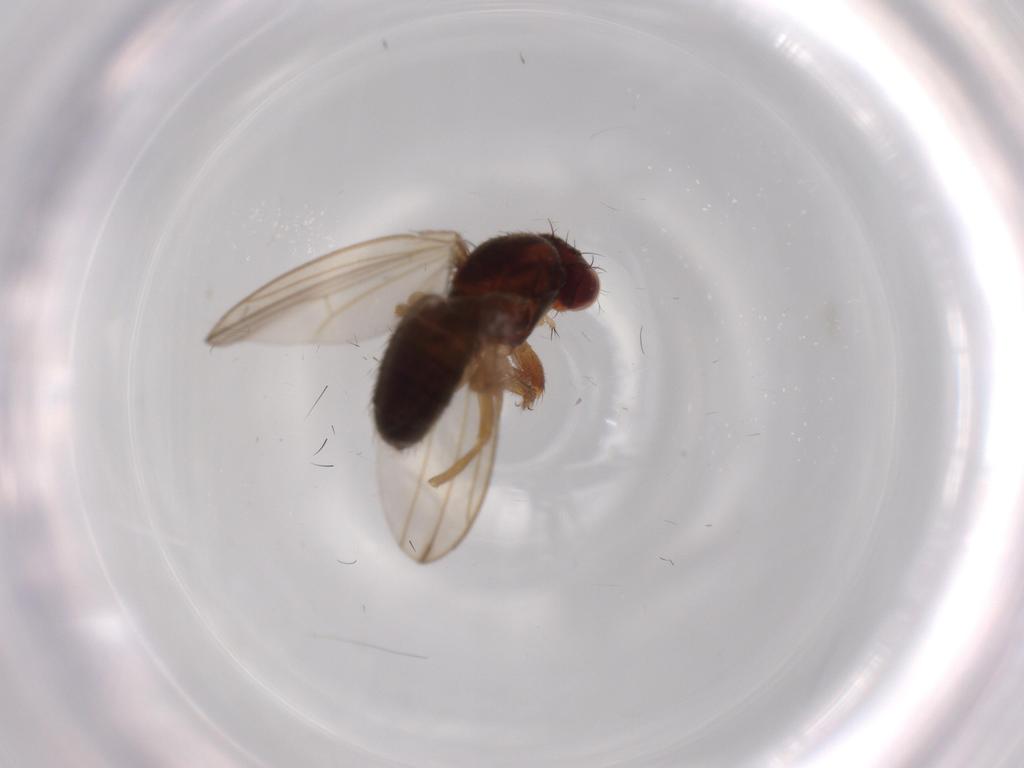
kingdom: Animalia
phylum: Arthropoda
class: Insecta
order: Diptera
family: Drosophilidae
